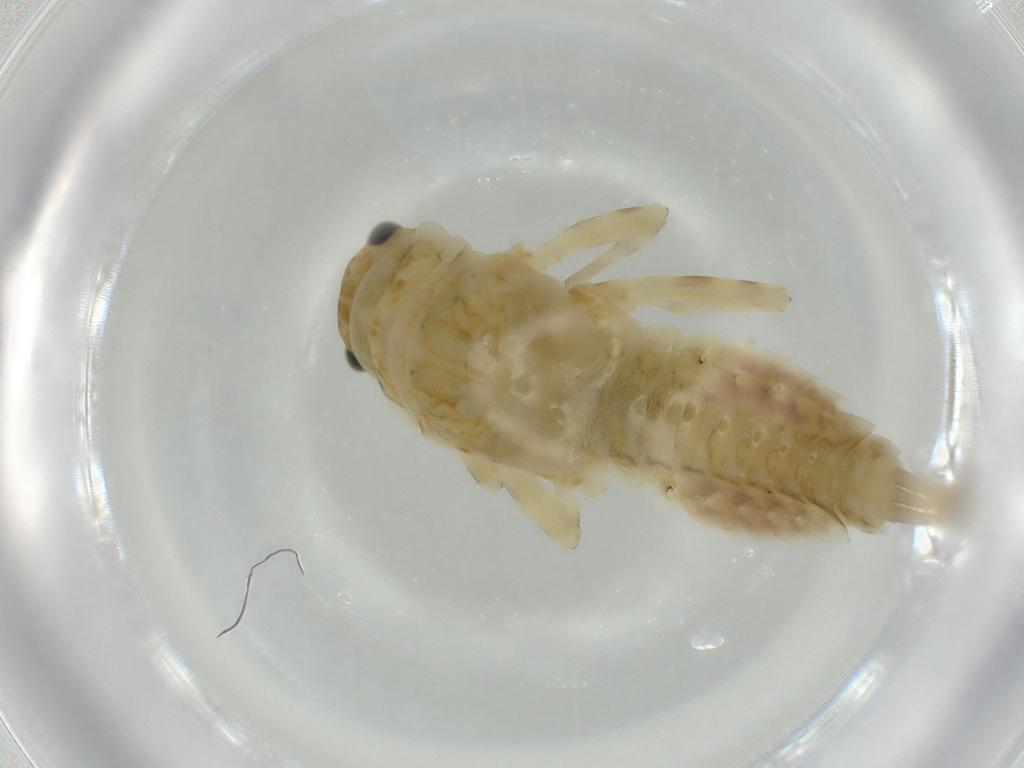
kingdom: Animalia
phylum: Arthropoda
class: Insecta
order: Ephemeroptera
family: Ephemerellidae
